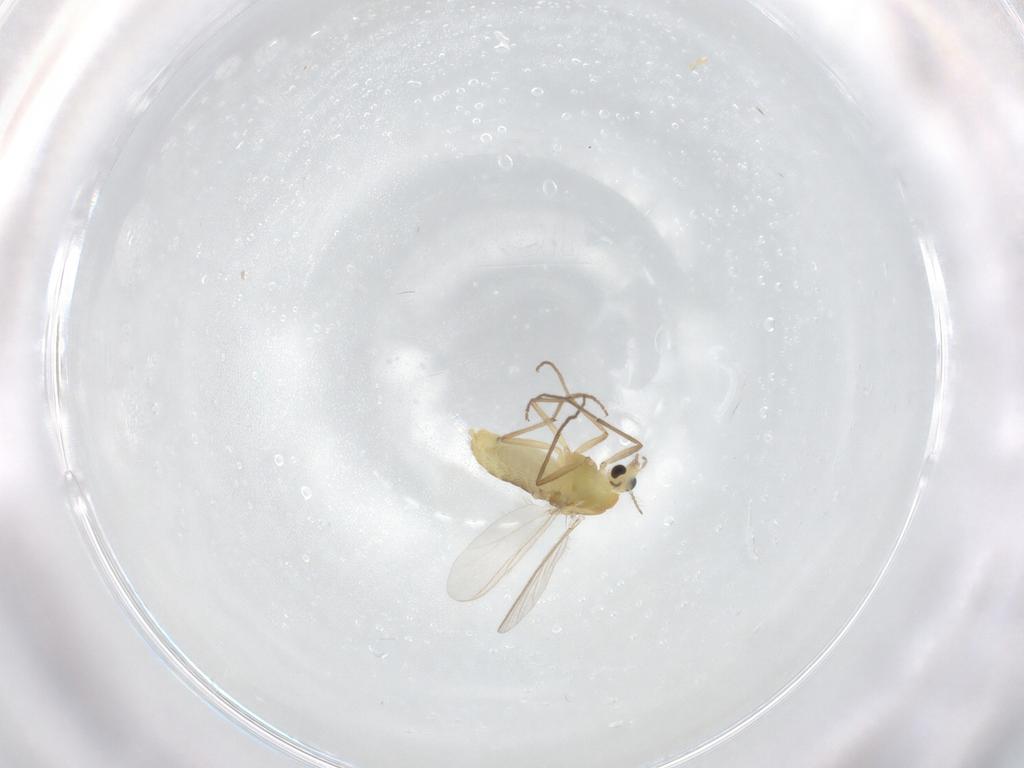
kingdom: Animalia
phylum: Arthropoda
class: Insecta
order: Diptera
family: Chironomidae
